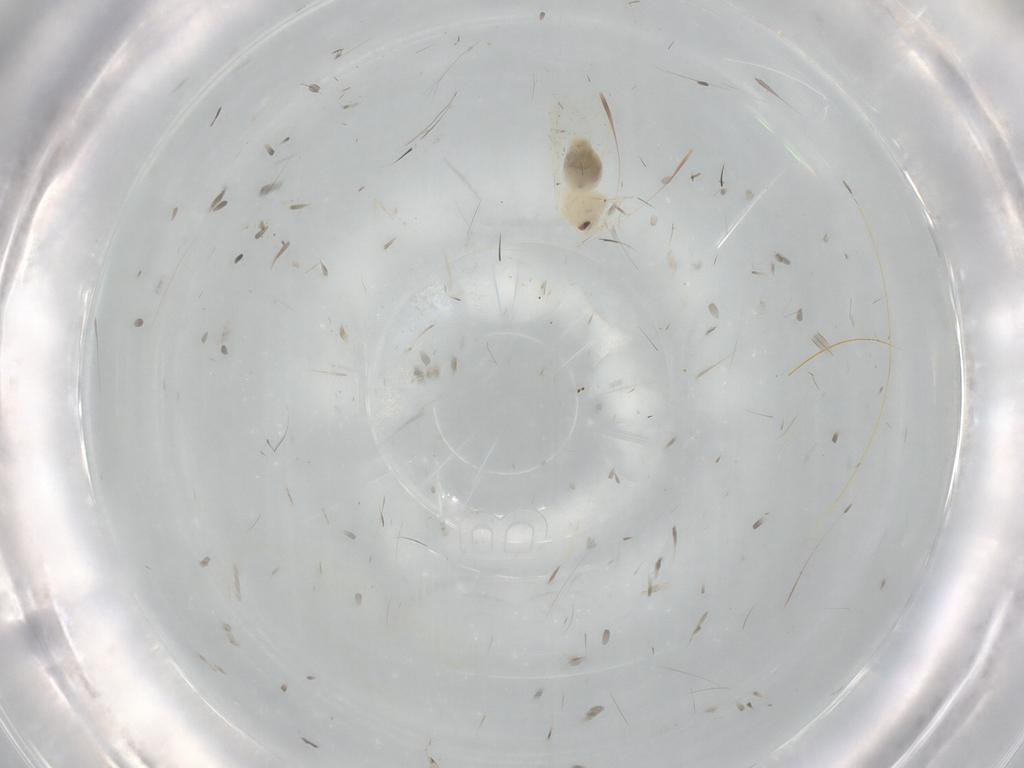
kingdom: Animalia
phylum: Arthropoda
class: Insecta
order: Hemiptera
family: Aleyrodidae
